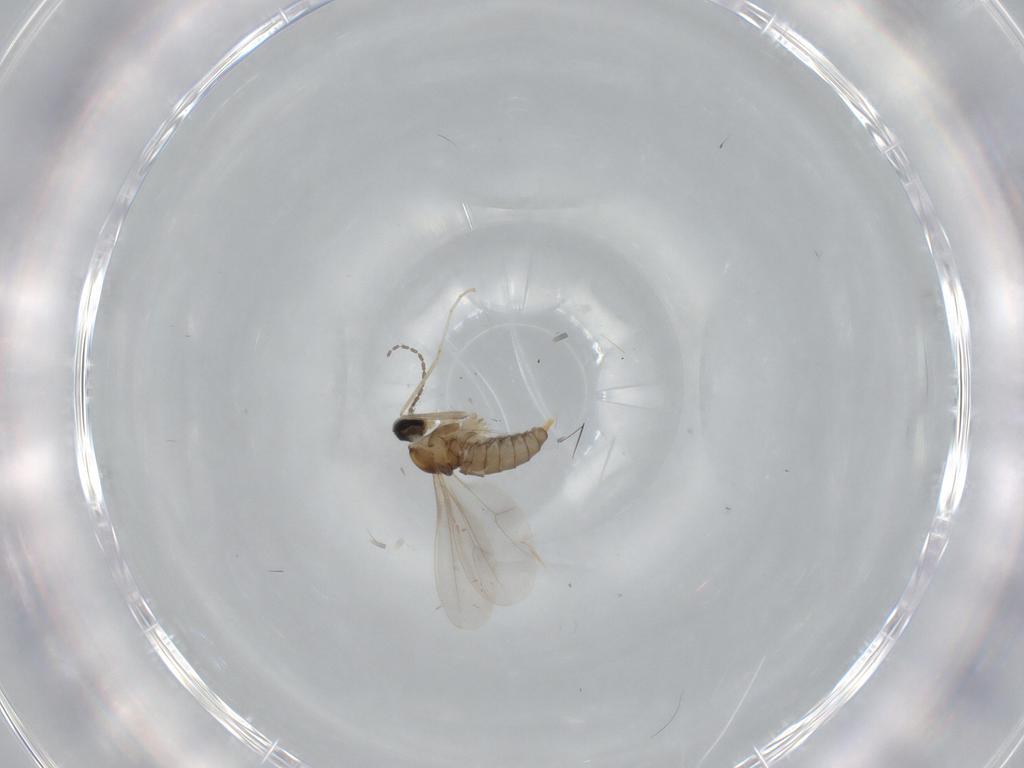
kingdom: Animalia
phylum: Arthropoda
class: Insecta
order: Diptera
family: Cecidomyiidae
